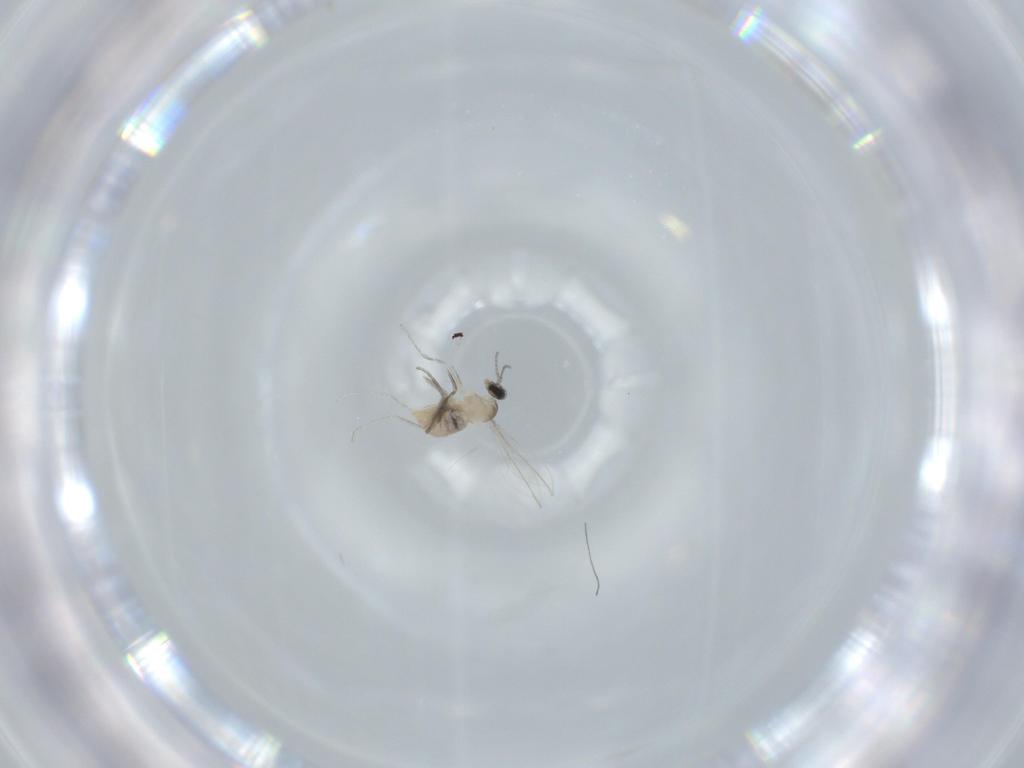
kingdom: Animalia
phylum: Arthropoda
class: Insecta
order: Diptera
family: Cecidomyiidae
